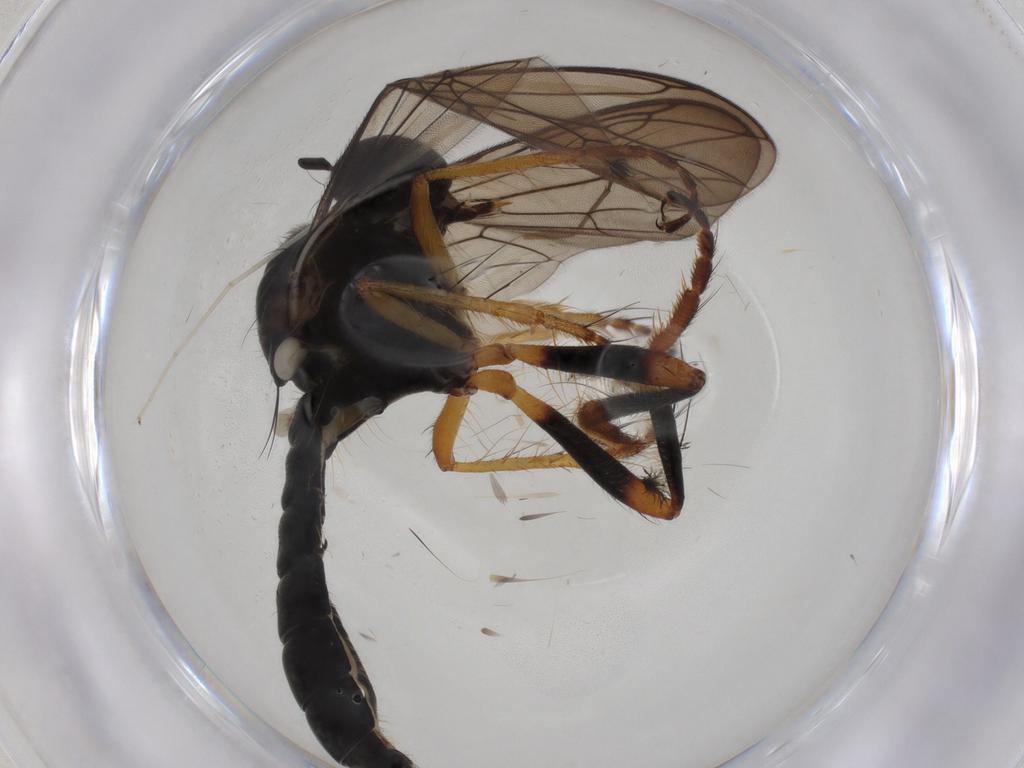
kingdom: Animalia
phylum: Arthropoda
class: Insecta
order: Diptera
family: Chironomidae
